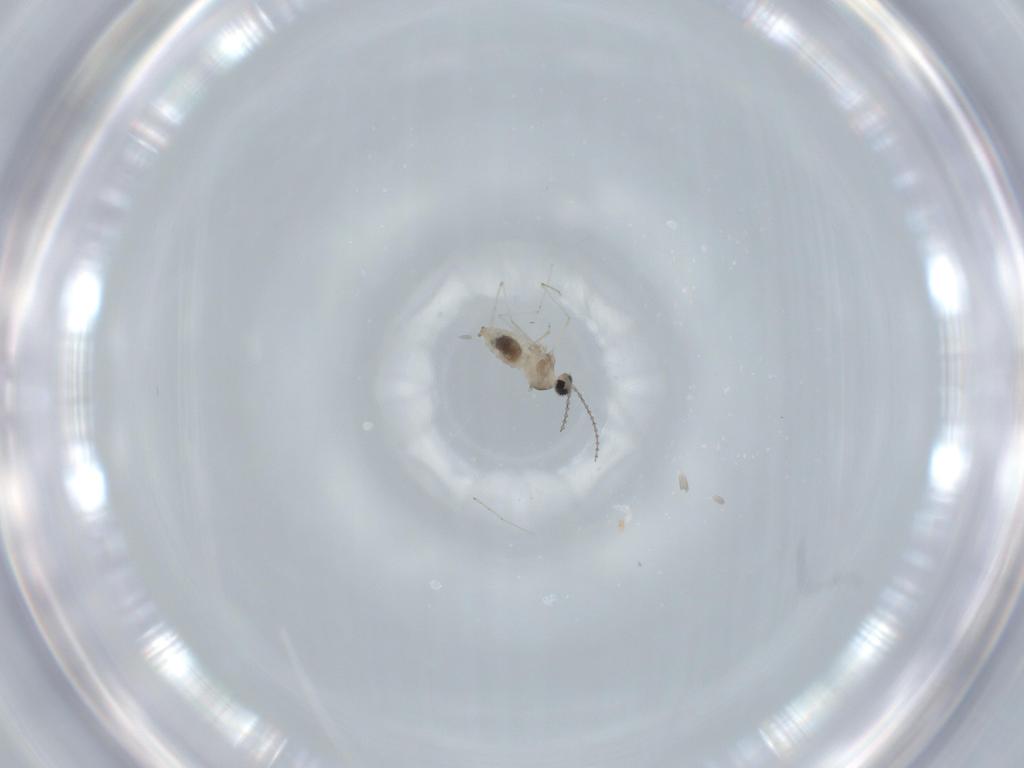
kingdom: Animalia
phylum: Arthropoda
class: Insecta
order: Diptera
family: Cecidomyiidae
